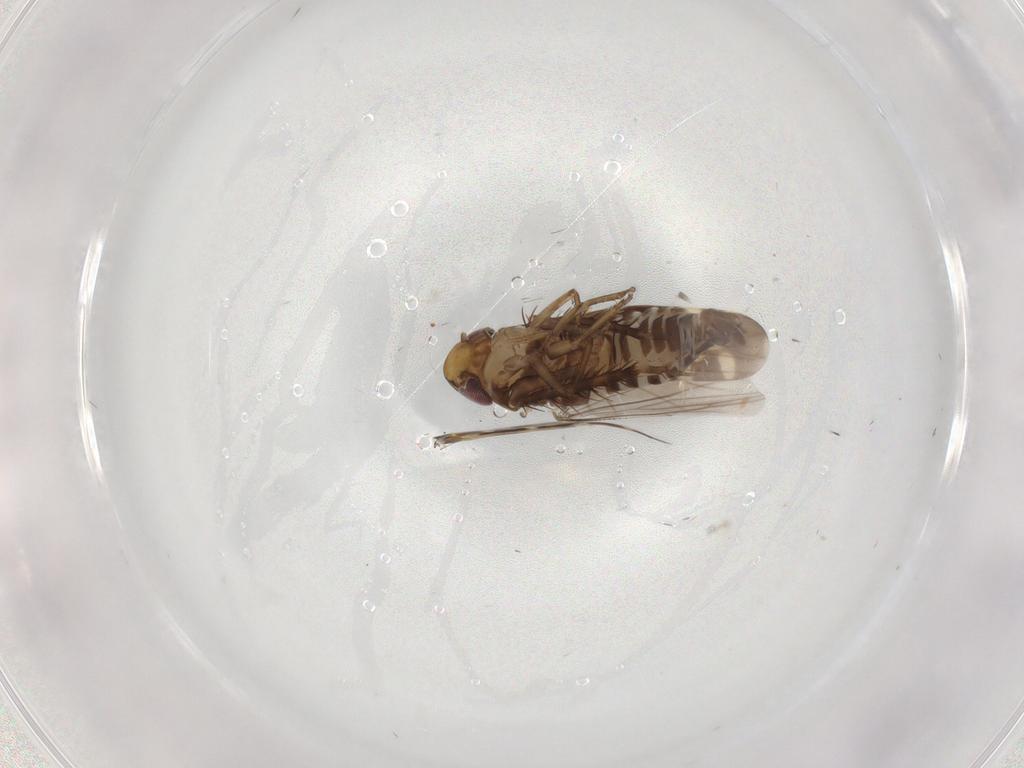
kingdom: Animalia
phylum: Arthropoda
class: Insecta
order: Hemiptera
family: Cicadellidae
